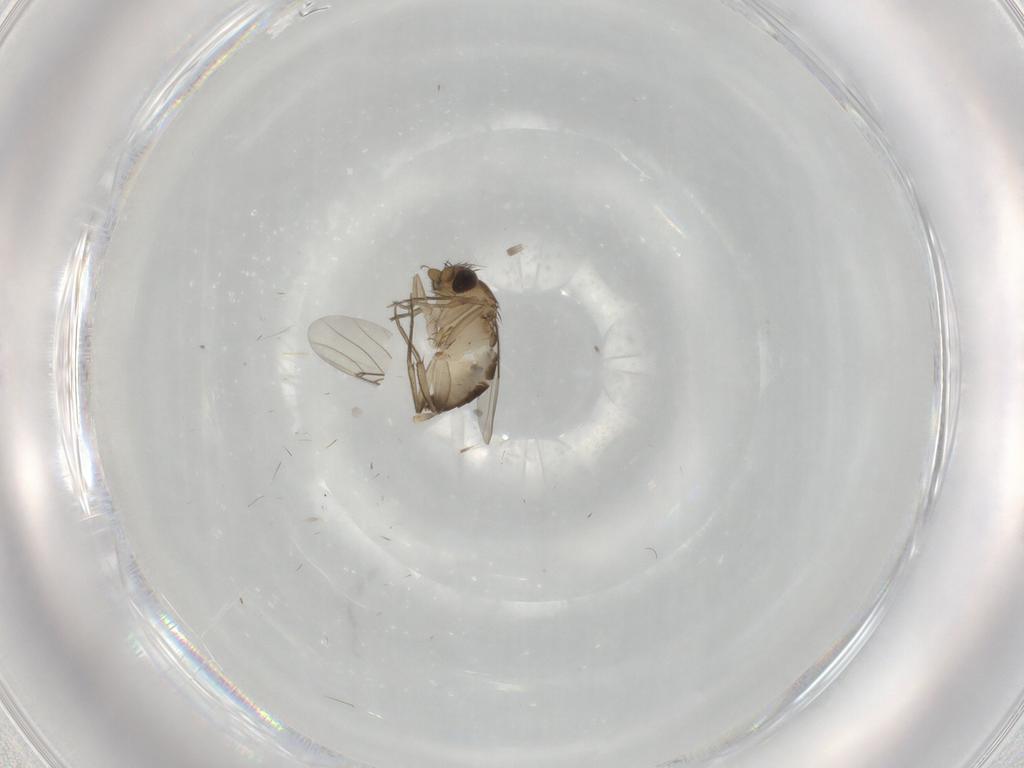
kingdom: Animalia
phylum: Arthropoda
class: Insecta
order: Diptera
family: Phoridae
